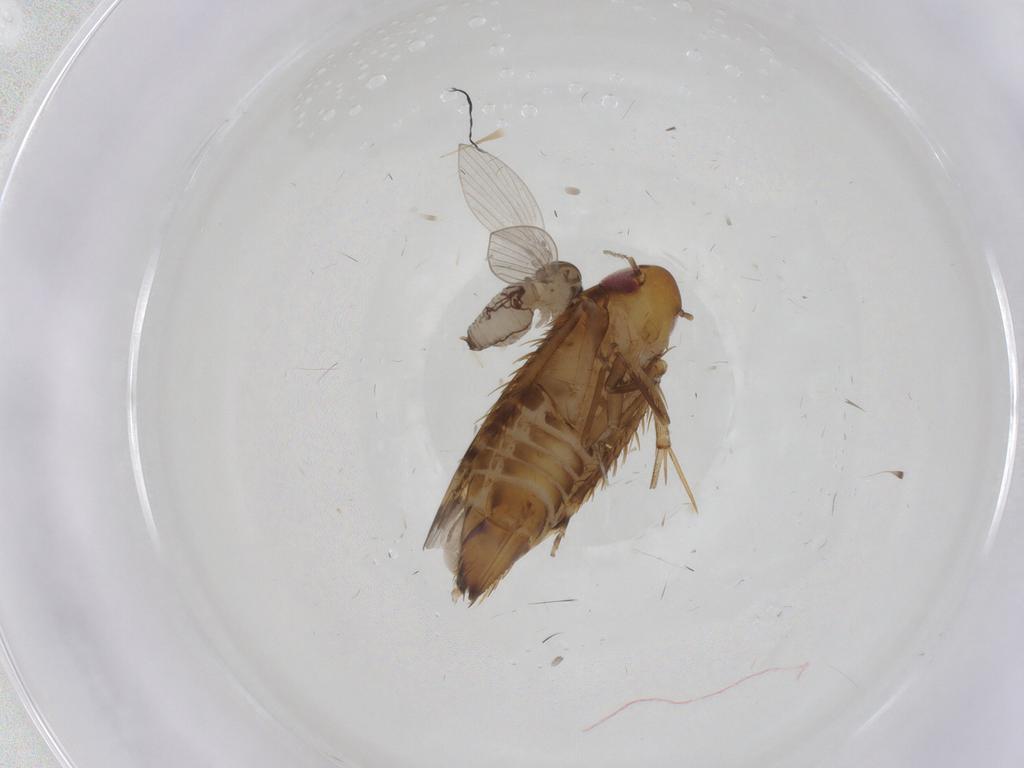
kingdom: Animalia
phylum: Arthropoda
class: Insecta
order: Diptera
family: Psychodidae
